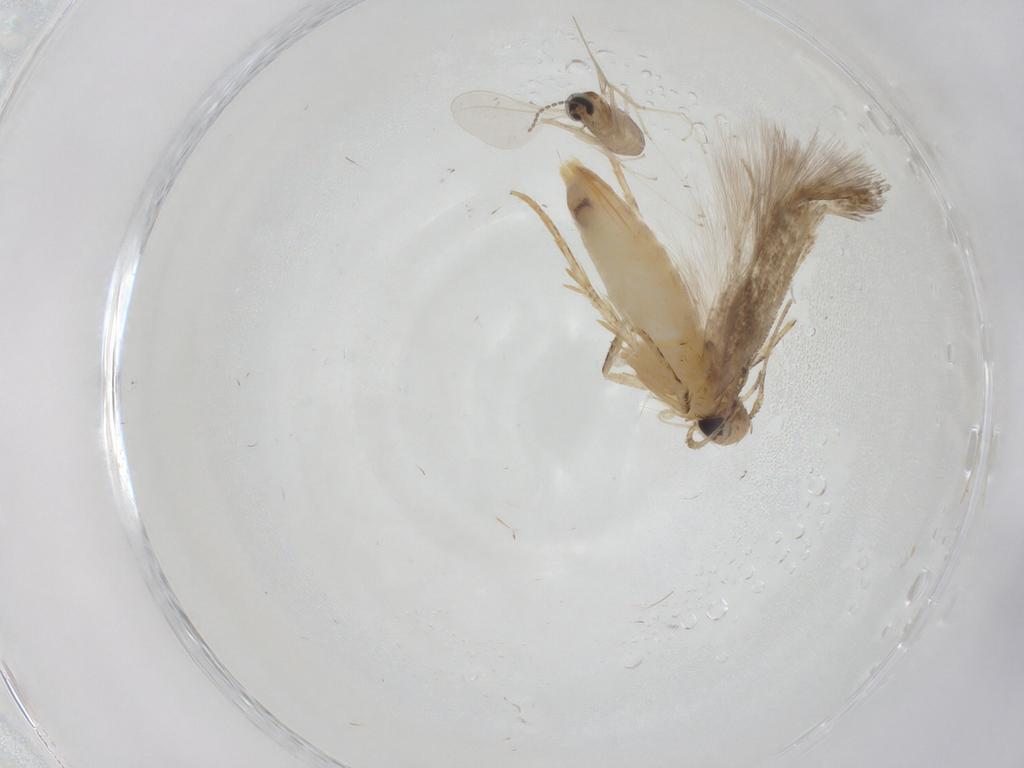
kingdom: Animalia
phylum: Arthropoda
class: Insecta
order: Diptera
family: Cecidomyiidae
